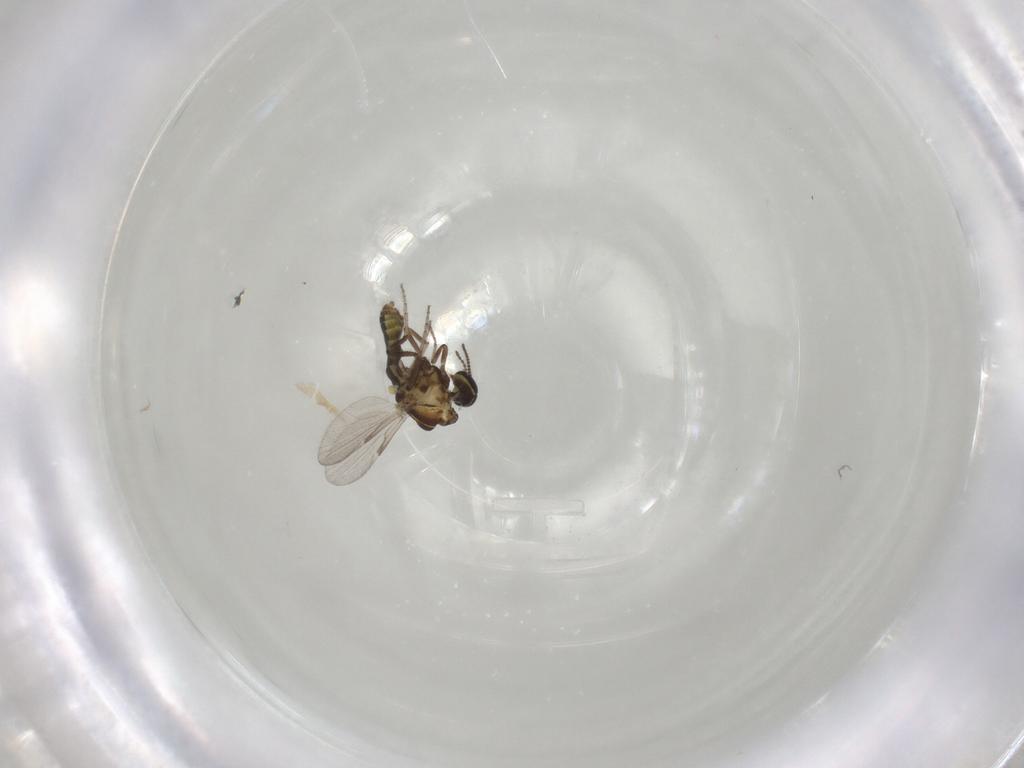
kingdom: Animalia
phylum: Arthropoda
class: Insecta
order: Diptera
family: Ceratopogonidae
